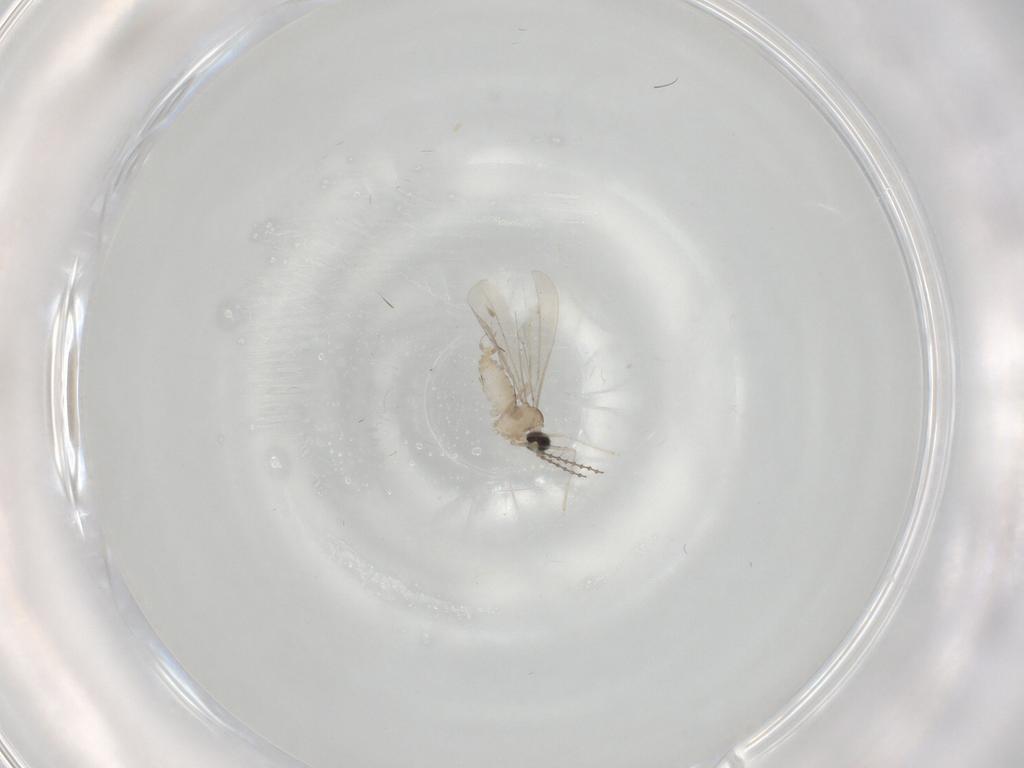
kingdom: Animalia
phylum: Arthropoda
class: Insecta
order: Diptera
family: Cecidomyiidae
